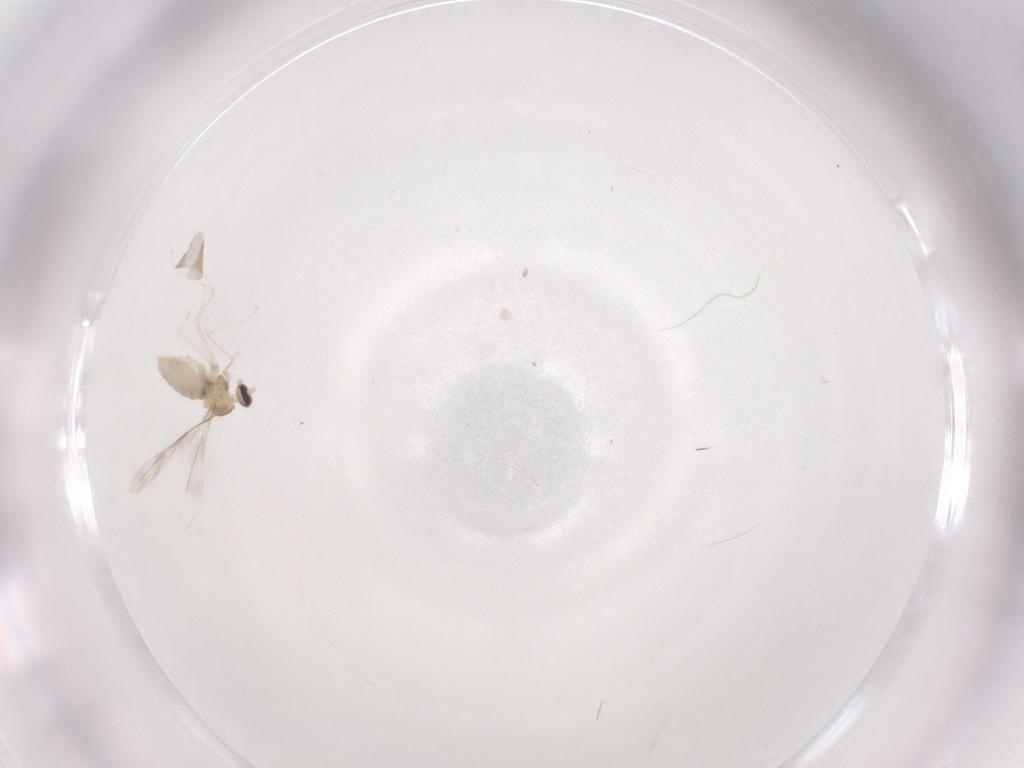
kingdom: Animalia
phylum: Arthropoda
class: Insecta
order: Diptera
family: Cecidomyiidae
